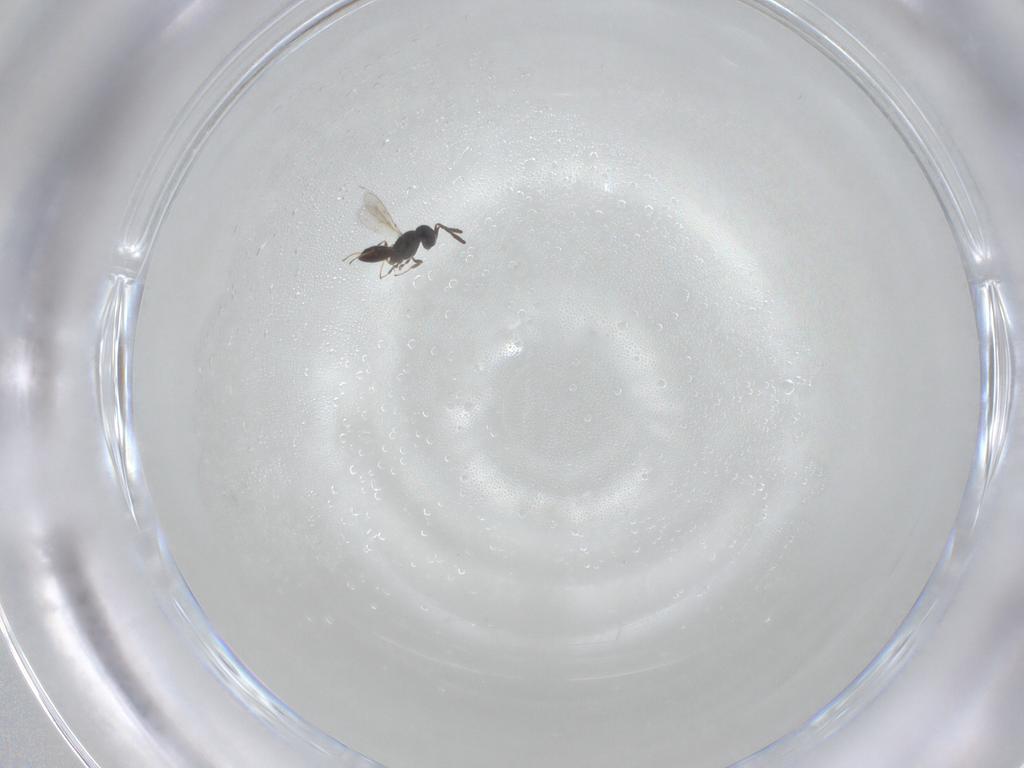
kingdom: Animalia
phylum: Arthropoda
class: Insecta
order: Hymenoptera
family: Scelionidae
